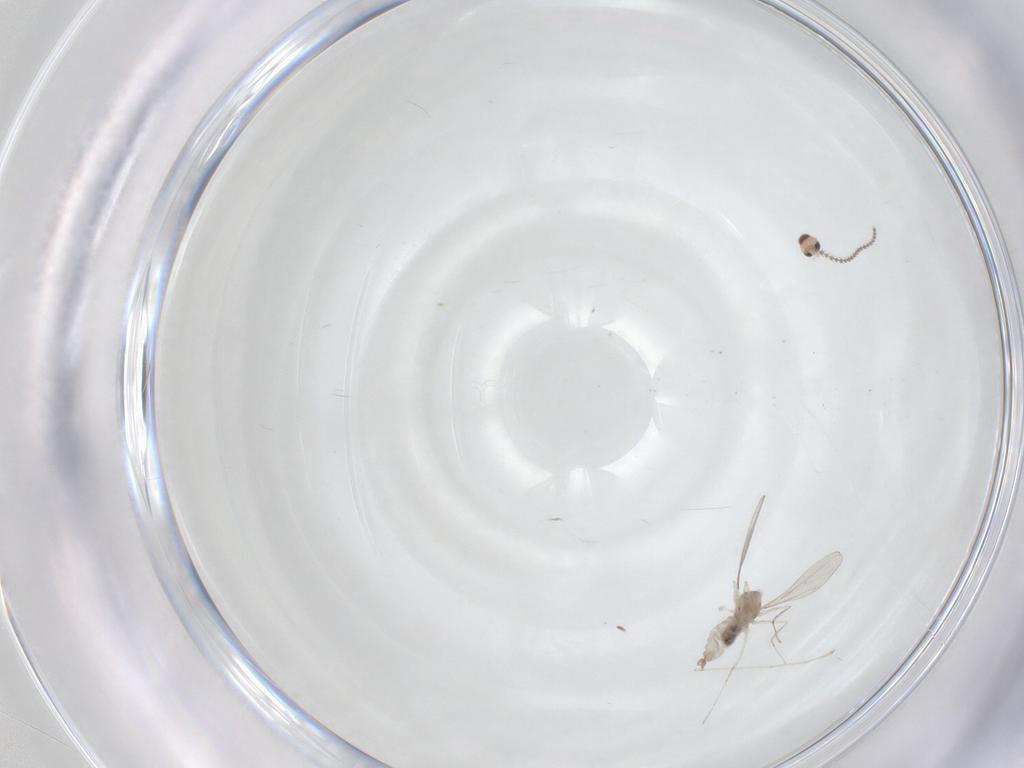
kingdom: Animalia
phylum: Arthropoda
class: Insecta
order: Diptera
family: Cecidomyiidae
